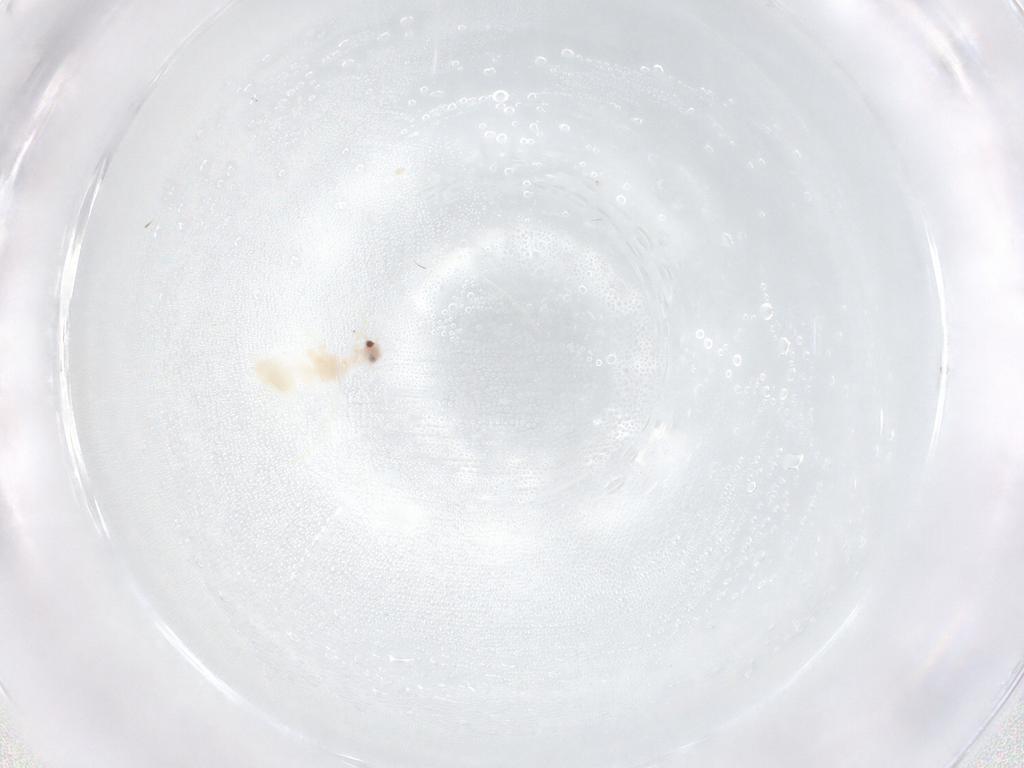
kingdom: Animalia
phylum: Arthropoda
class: Insecta
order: Hemiptera
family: Aleyrodidae
